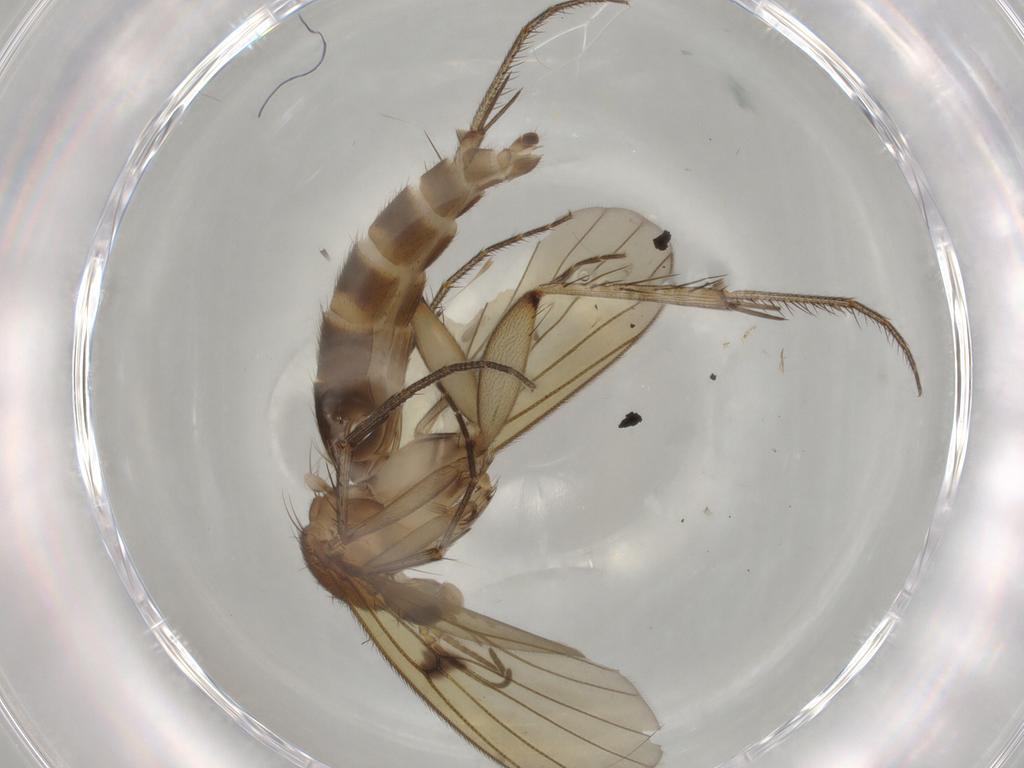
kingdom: Animalia
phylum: Arthropoda
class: Insecta
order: Diptera
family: Mycetophilidae
